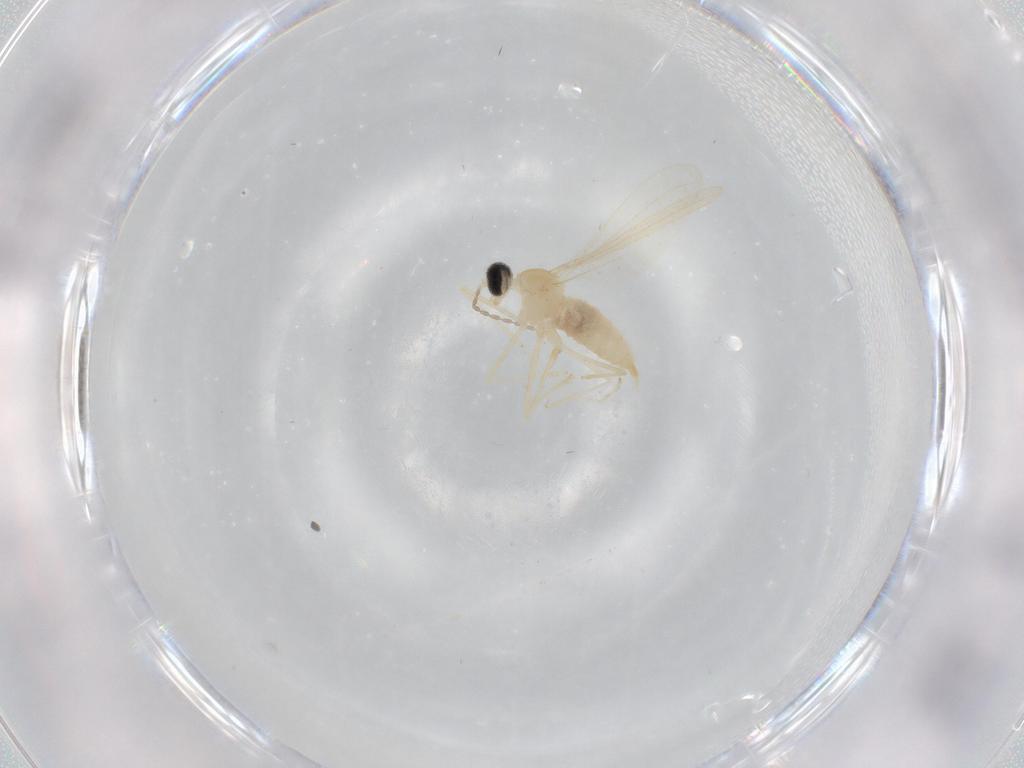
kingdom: Animalia
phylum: Arthropoda
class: Insecta
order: Diptera
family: Cecidomyiidae
